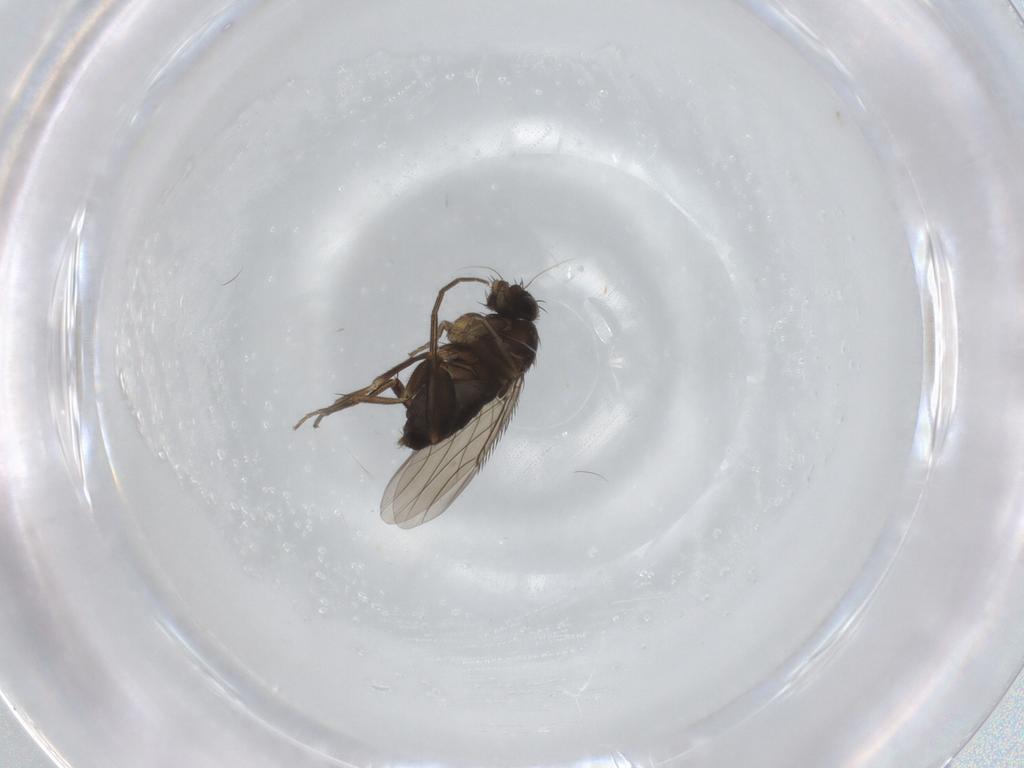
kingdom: Animalia
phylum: Arthropoda
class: Insecta
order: Diptera
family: Phoridae
